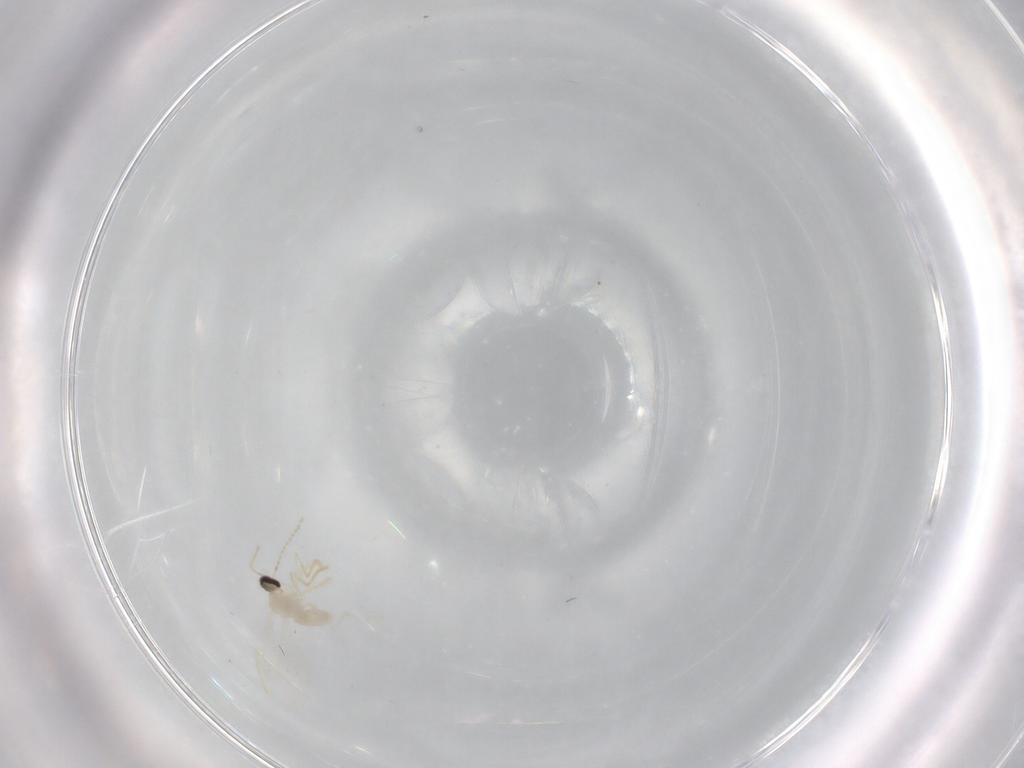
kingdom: Animalia
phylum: Arthropoda
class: Insecta
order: Diptera
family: Cecidomyiidae
